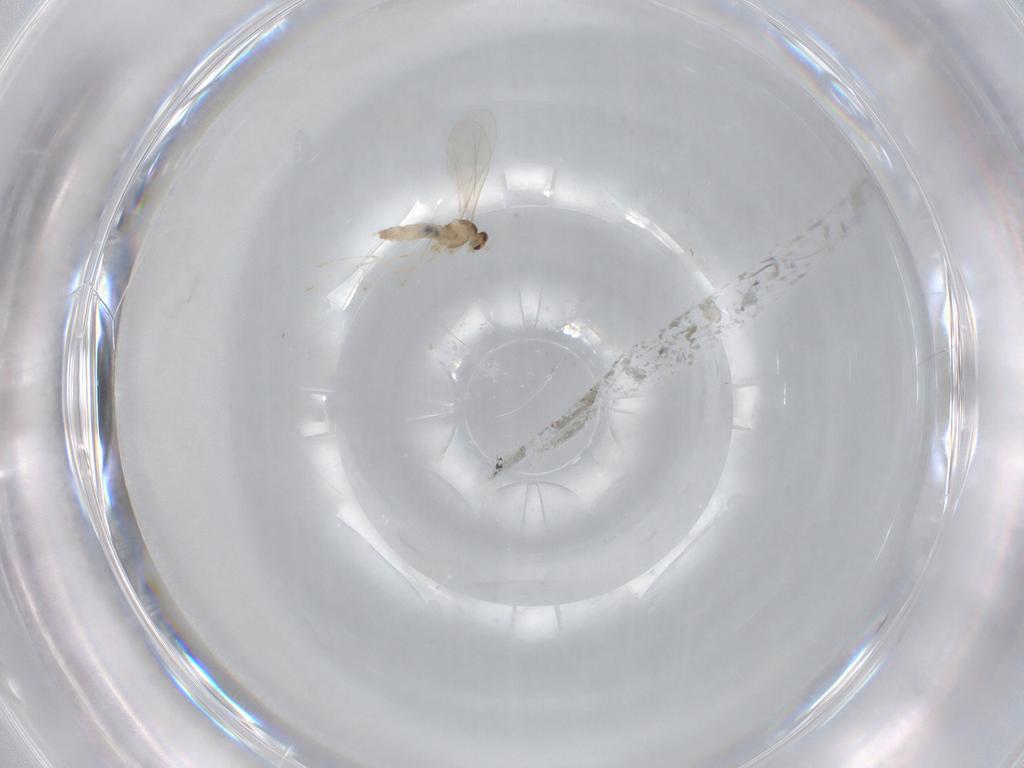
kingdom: Animalia
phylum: Arthropoda
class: Insecta
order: Diptera
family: Cecidomyiidae
